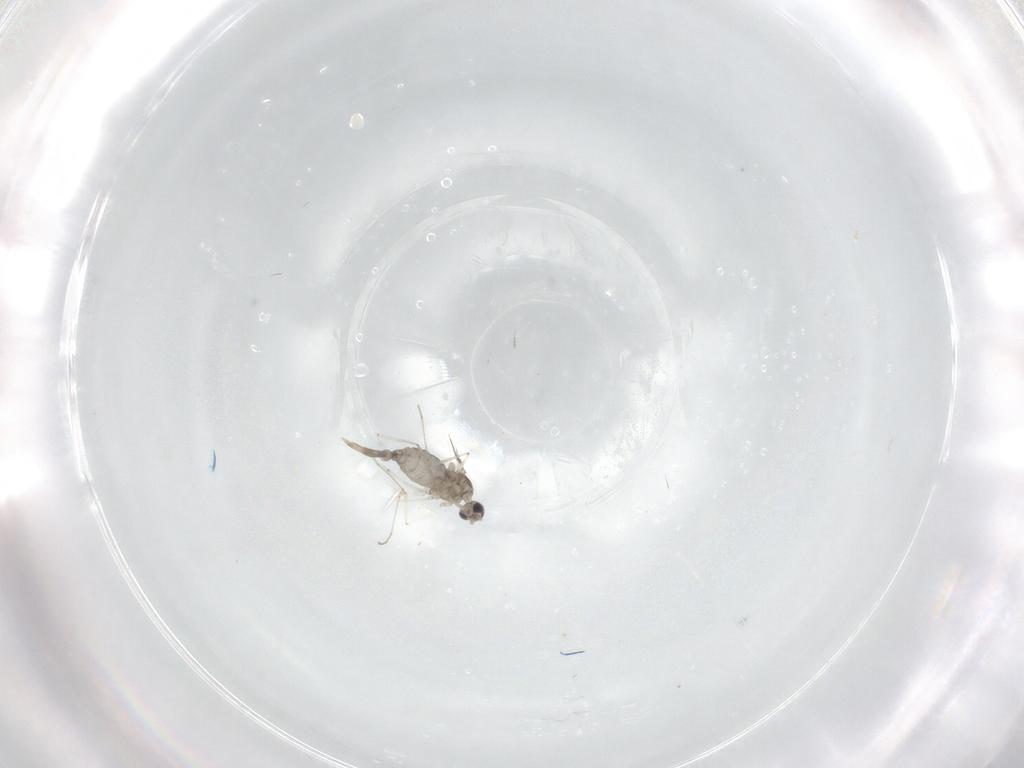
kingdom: Animalia
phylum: Arthropoda
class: Insecta
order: Diptera
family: Cecidomyiidae
